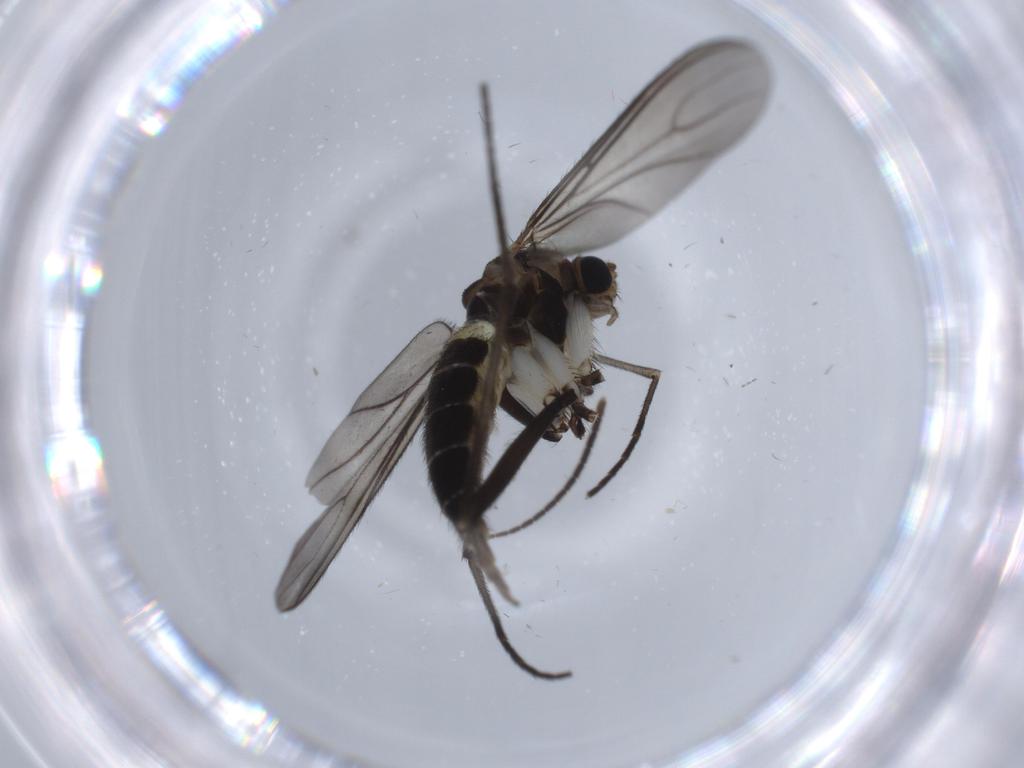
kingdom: Animalia
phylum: Arthropoda
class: Insecta
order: Diptera
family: Sciaridae
